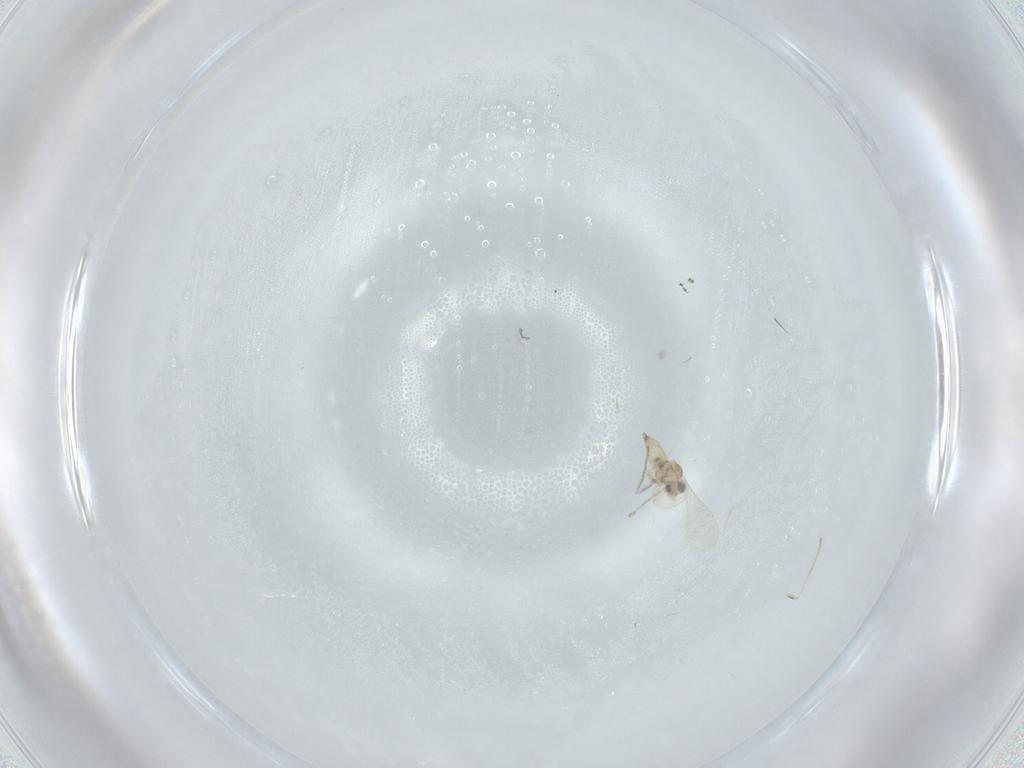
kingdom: Animalia
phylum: Arthropoda
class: Insecta
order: Diptera
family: Cecidomyiidae
